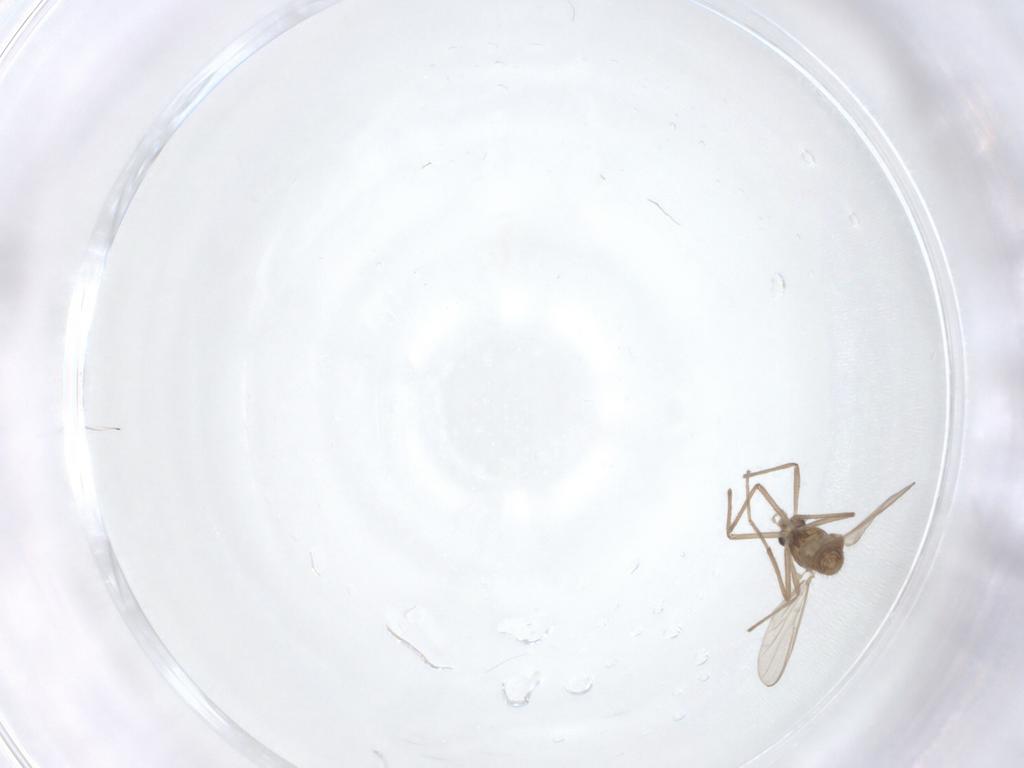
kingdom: Animalia
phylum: Arthropoda
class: Insecta
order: Diptera
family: Chironomidae
